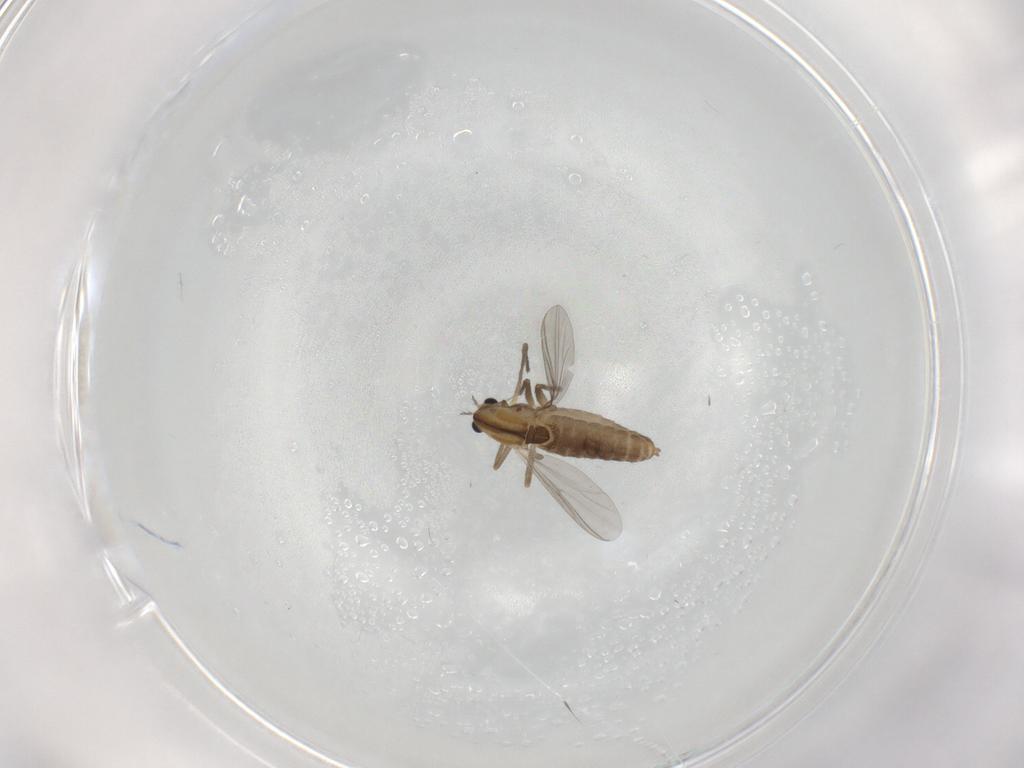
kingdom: Animalia
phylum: Arthropoda
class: Insecta
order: Diptera
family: Chironomidae
